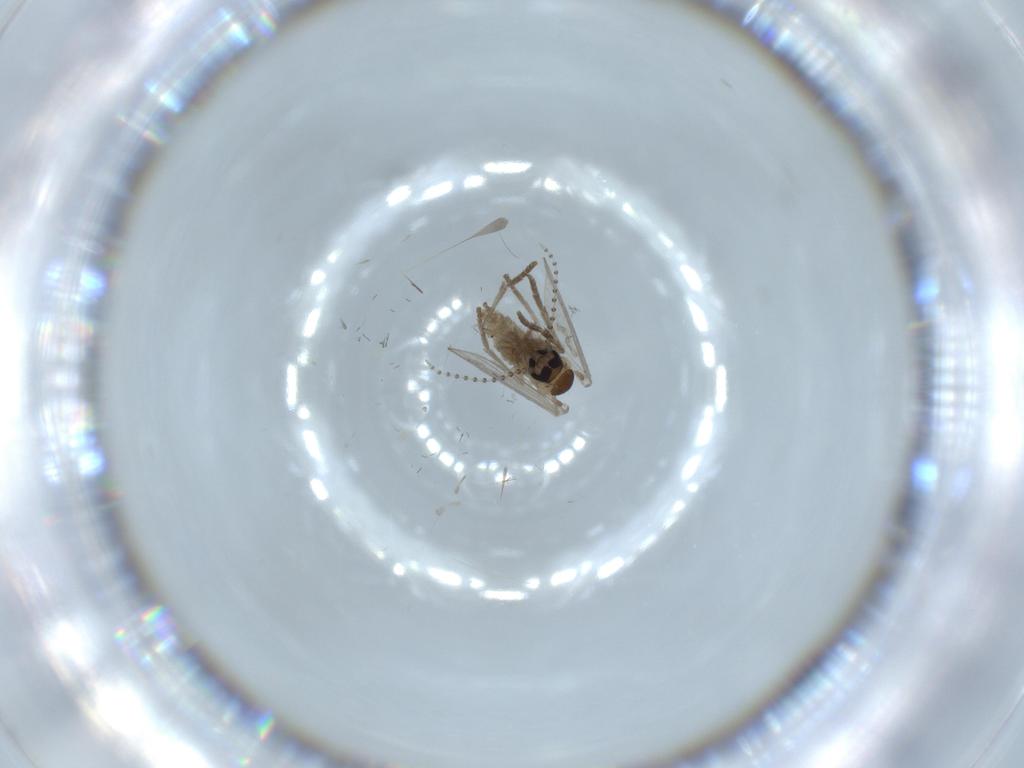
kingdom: Animalia
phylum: Arthropoda
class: Insecta
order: Diptera
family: Psychodidae
